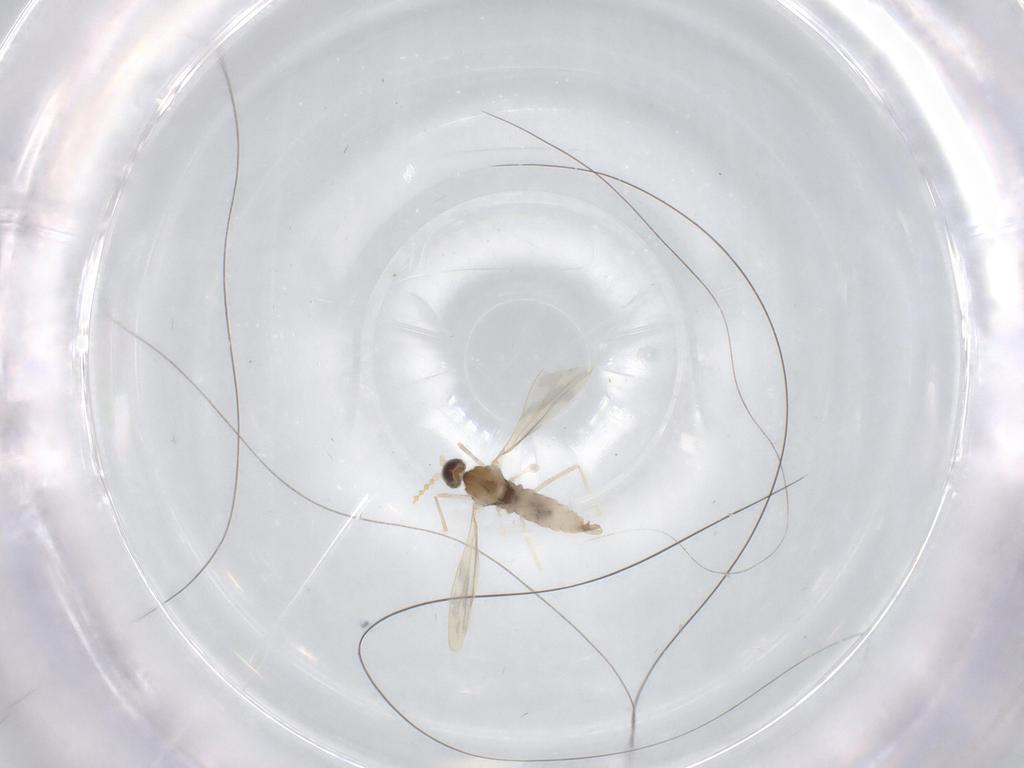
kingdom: Animalia
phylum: Arthropoda
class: Insecta
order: Diptera
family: Cecidomyiidae
